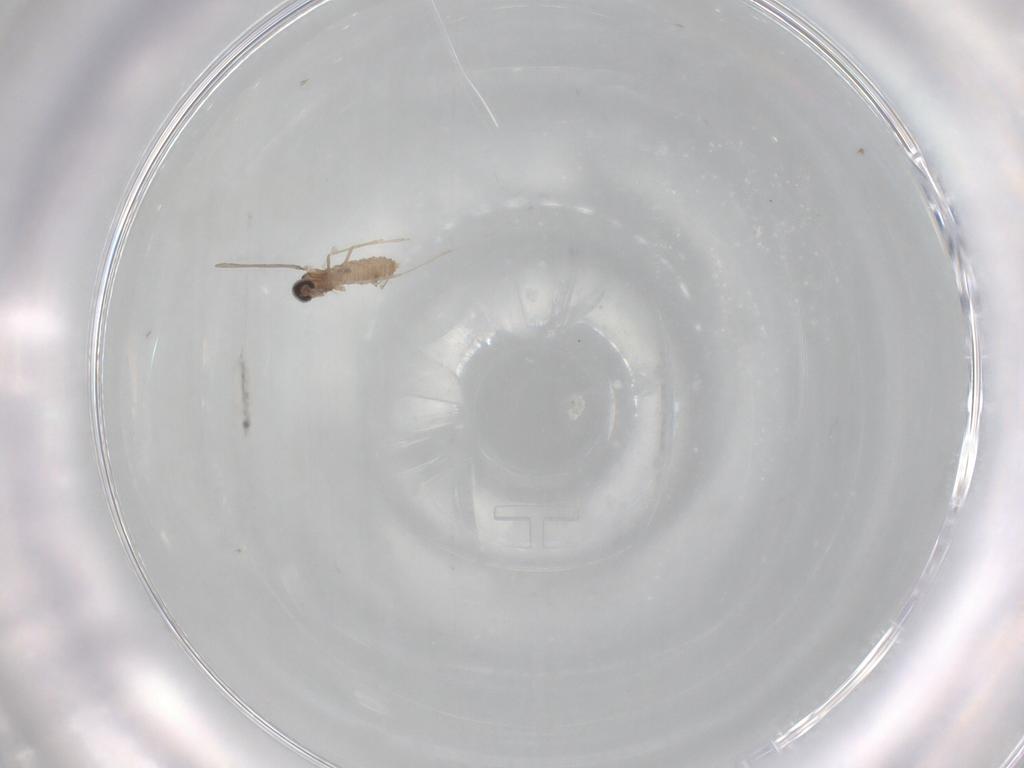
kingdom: Animalia
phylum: Arthropoda
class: Insecta
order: Diptera
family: Cecidomyiidae
